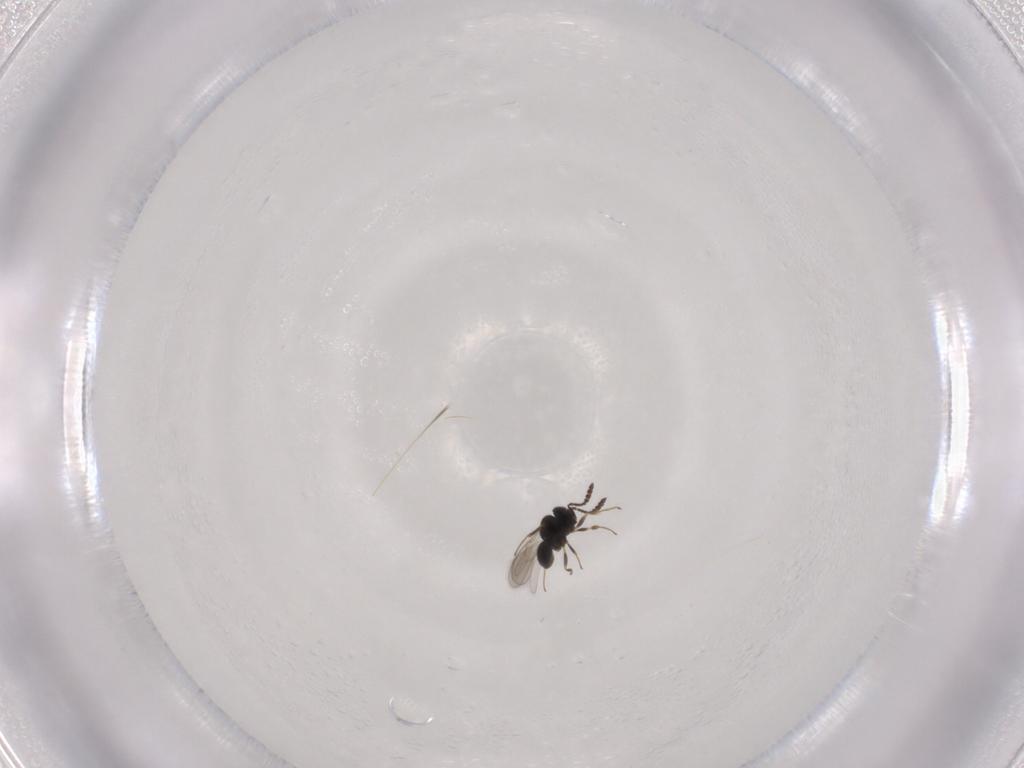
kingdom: Animalia
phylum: Arthropoda
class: Insecta
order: Hymenoptera
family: Scelionidae
